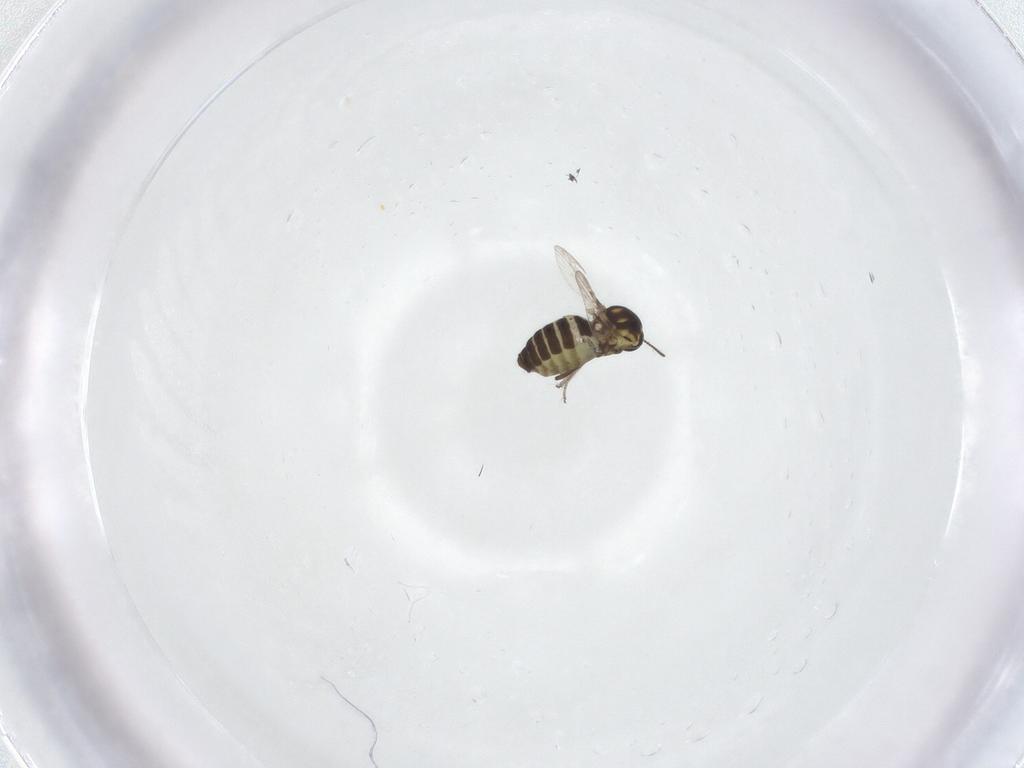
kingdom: Animalia
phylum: Arthropoda
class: Insecta
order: Diptera
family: Ceratopogonidae
